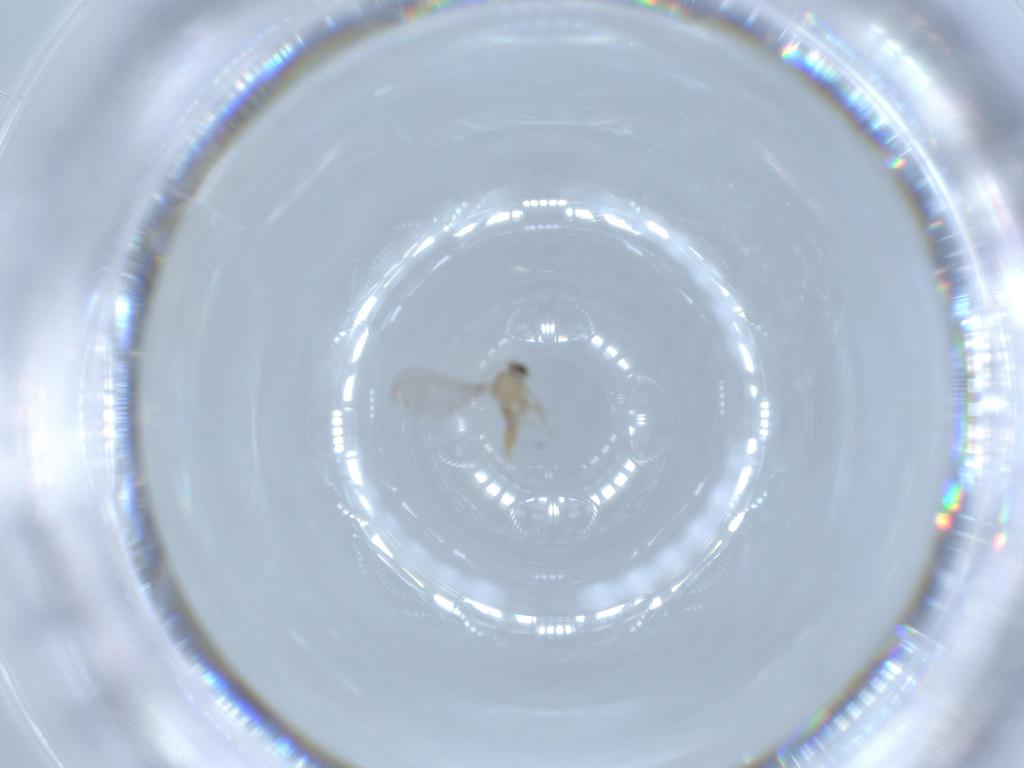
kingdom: Animalia
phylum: Arthropoda
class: Insecta
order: Diptera
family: Cecidomyiidae
